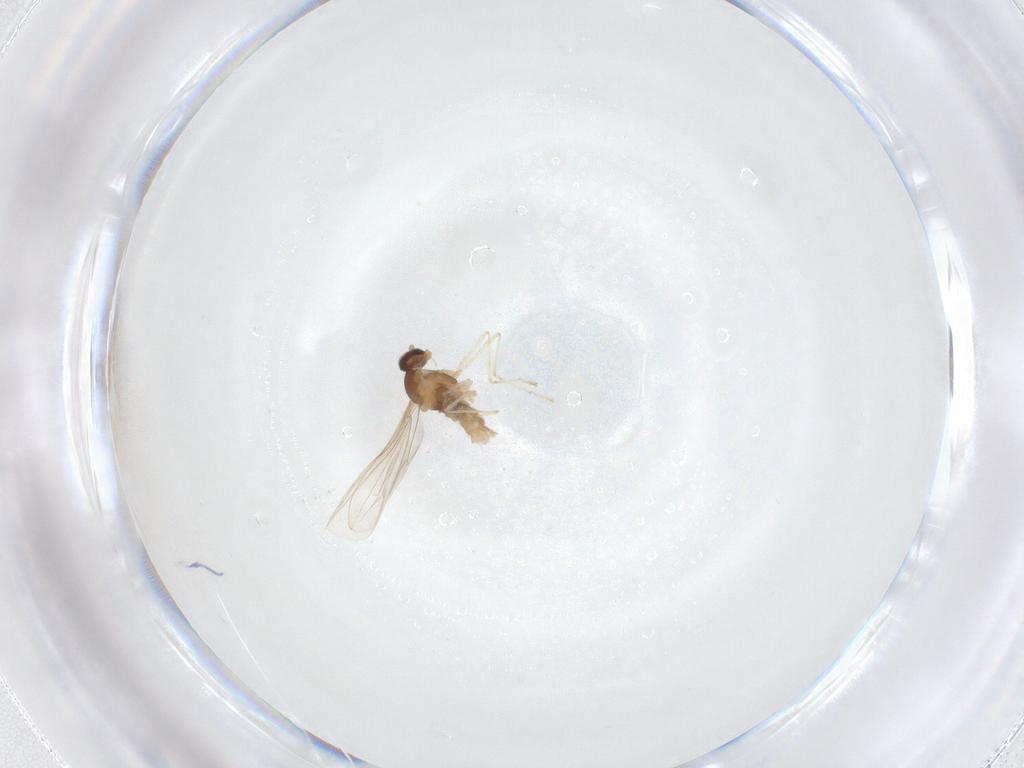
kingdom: Animalia
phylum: Arthropoda
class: Insecta
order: Diptera
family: Cecidomyiidae
